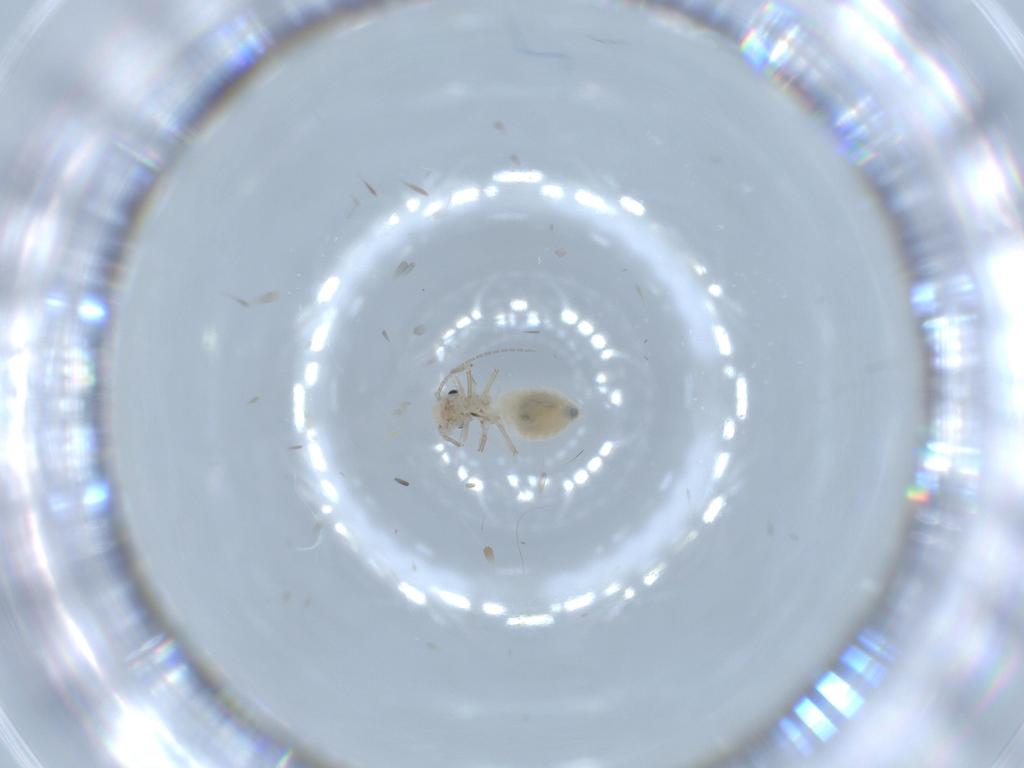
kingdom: Animalia
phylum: Arthropoda
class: Insecta
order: Psocodea
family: Caeciliusidae
